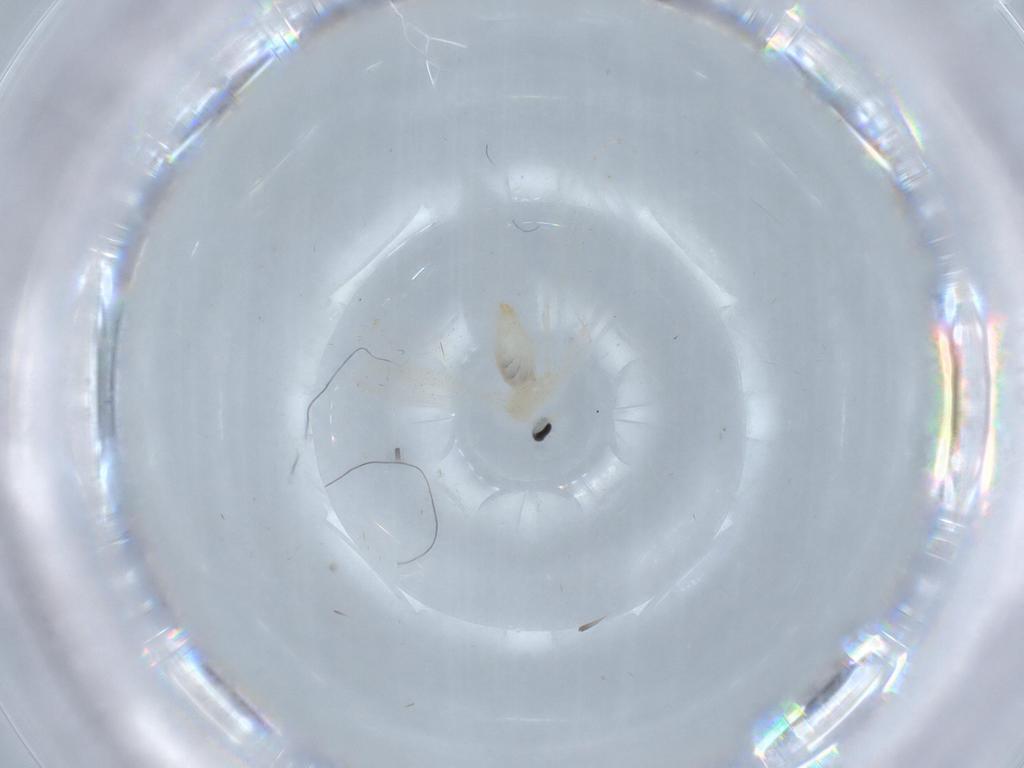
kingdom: Animalia
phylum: Arthropoda
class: Insecta
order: Diptera
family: Cecidomyiidae
